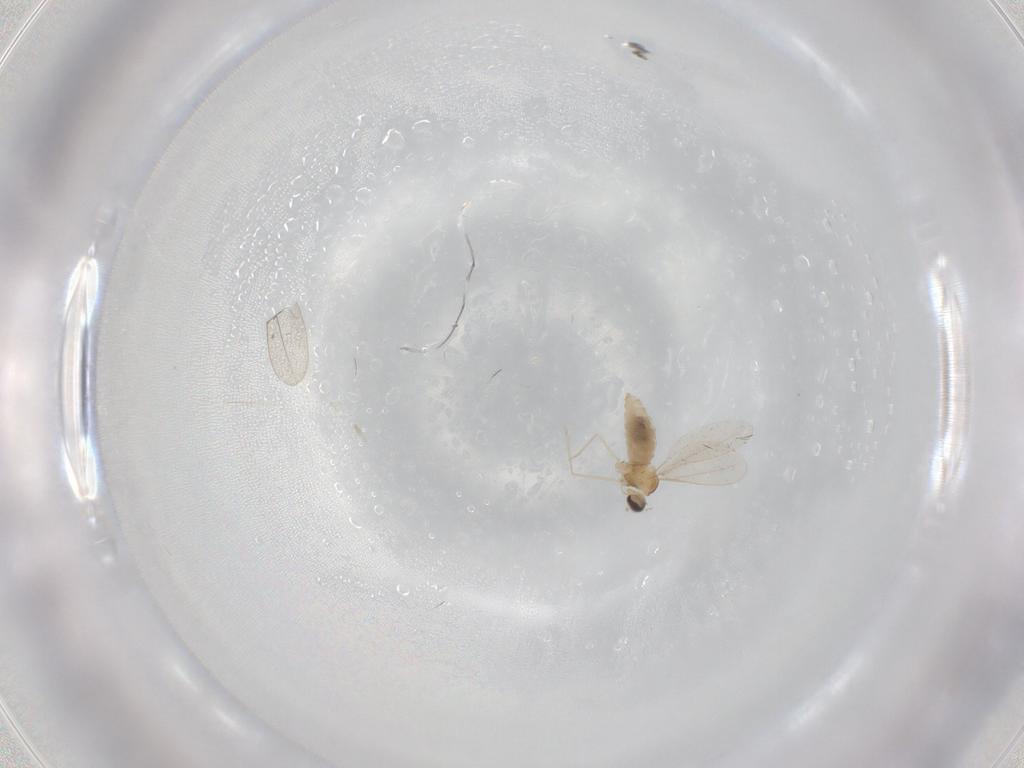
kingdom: Animalia
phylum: Arthropoda
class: Insecta
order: Diptera
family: Cecidomyiidae
